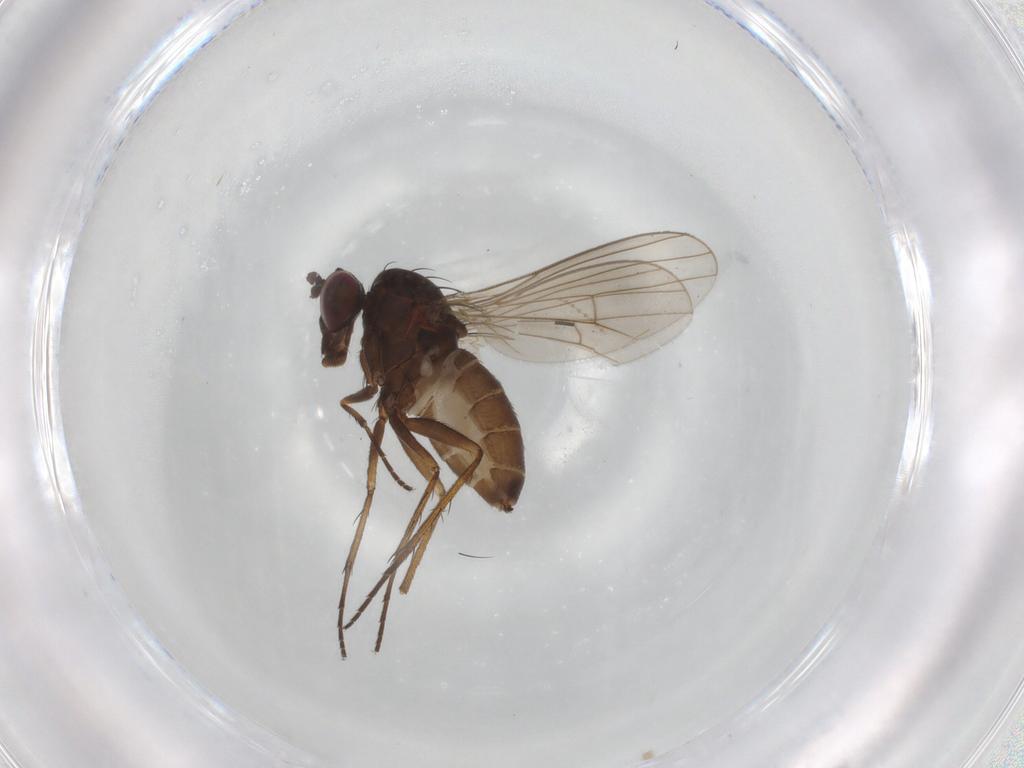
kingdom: Animalia
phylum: Arthropoda
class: Insecta
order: Diptera
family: Dolichopodidae
